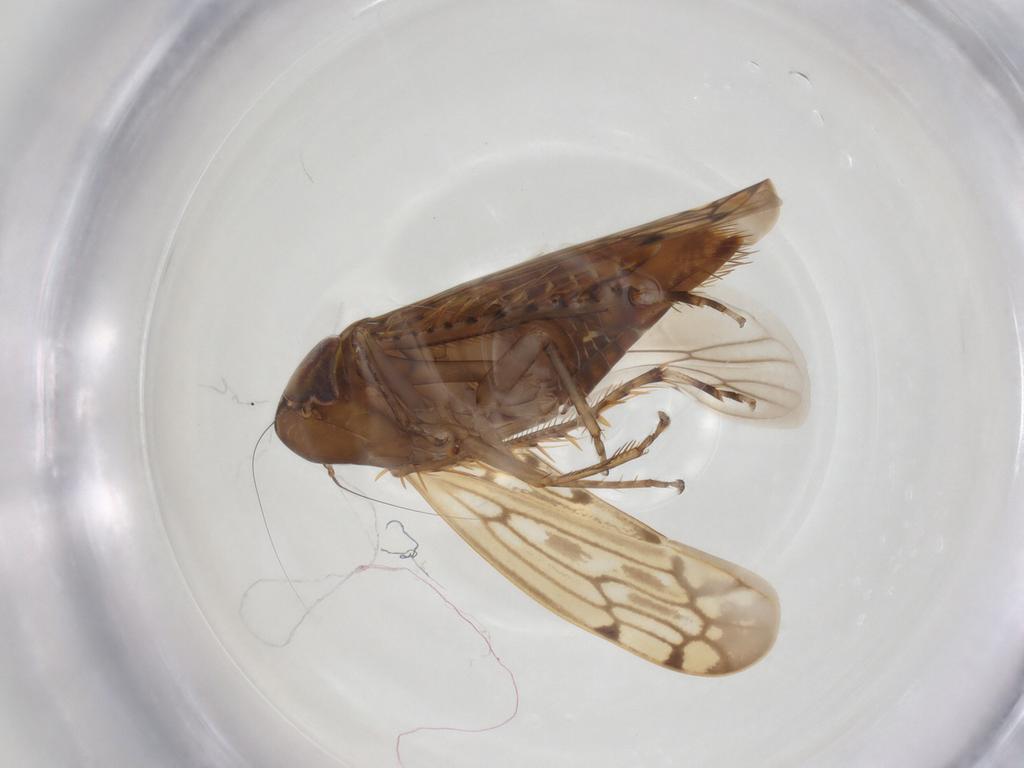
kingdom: Animalia
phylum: Arthropoda
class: Insecta
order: Hemiptera
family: Cicadellidae
